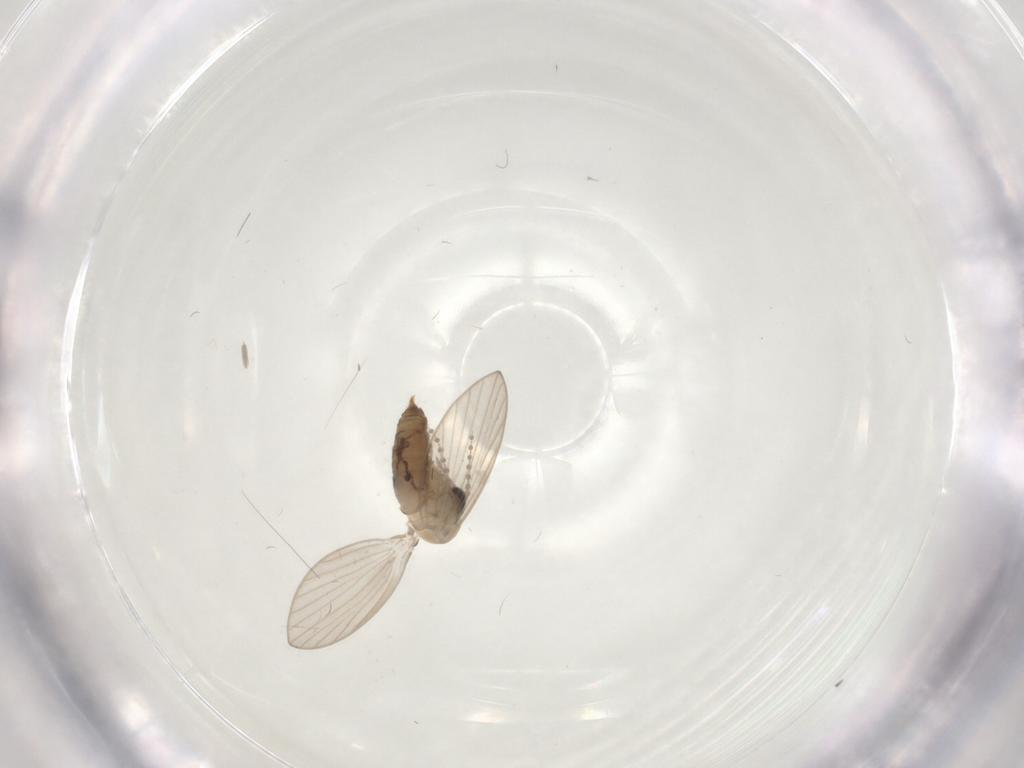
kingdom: Animalia
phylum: Arthropoda
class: Insecta
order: Diptera
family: Psychodidae
